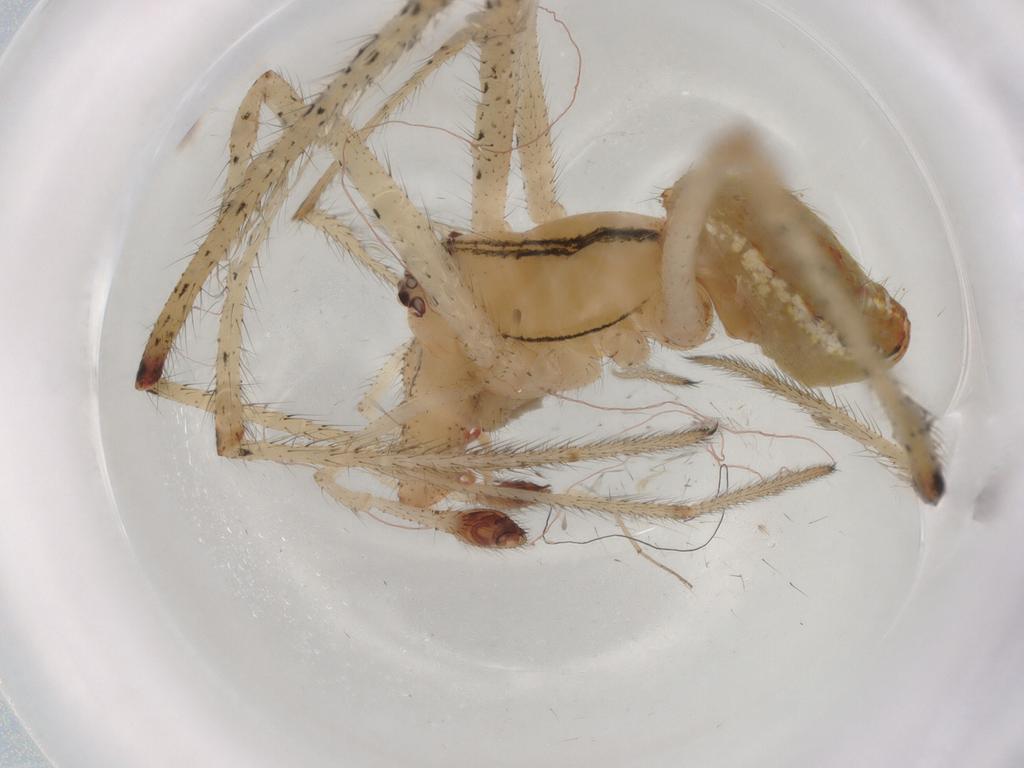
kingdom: Animalia
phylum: Arthropoda
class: Arachnida
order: Araneae
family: Theridiidae
